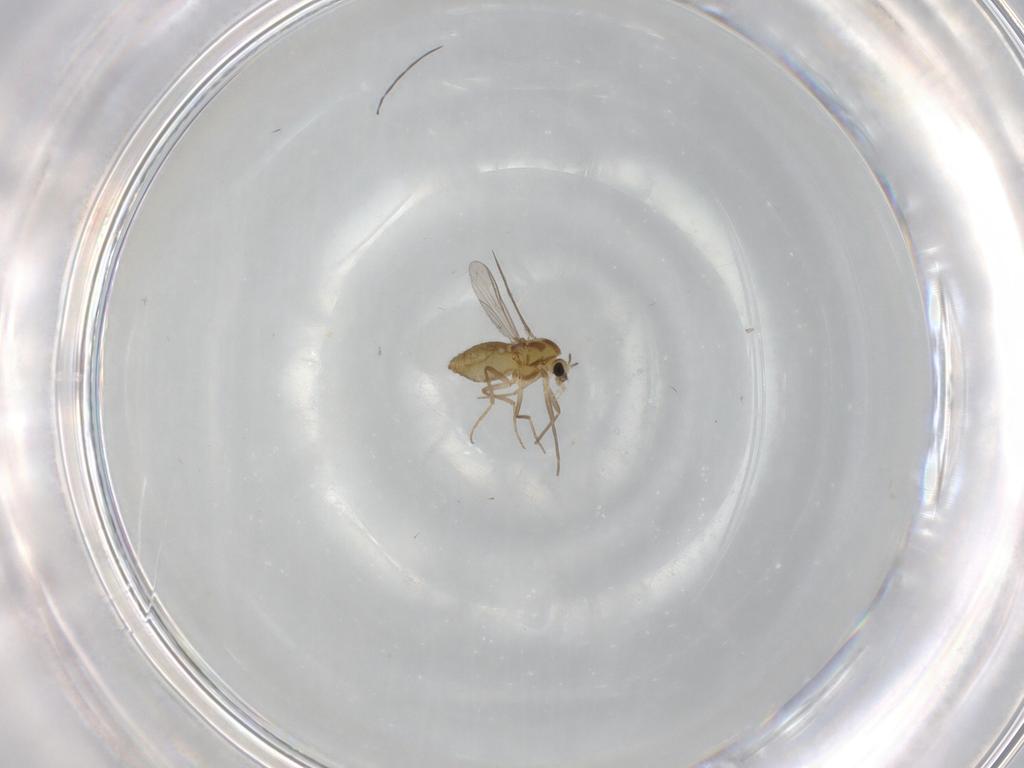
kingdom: Animalia
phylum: Arthropoda
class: Insecta
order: Diptera
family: Chironomidae
